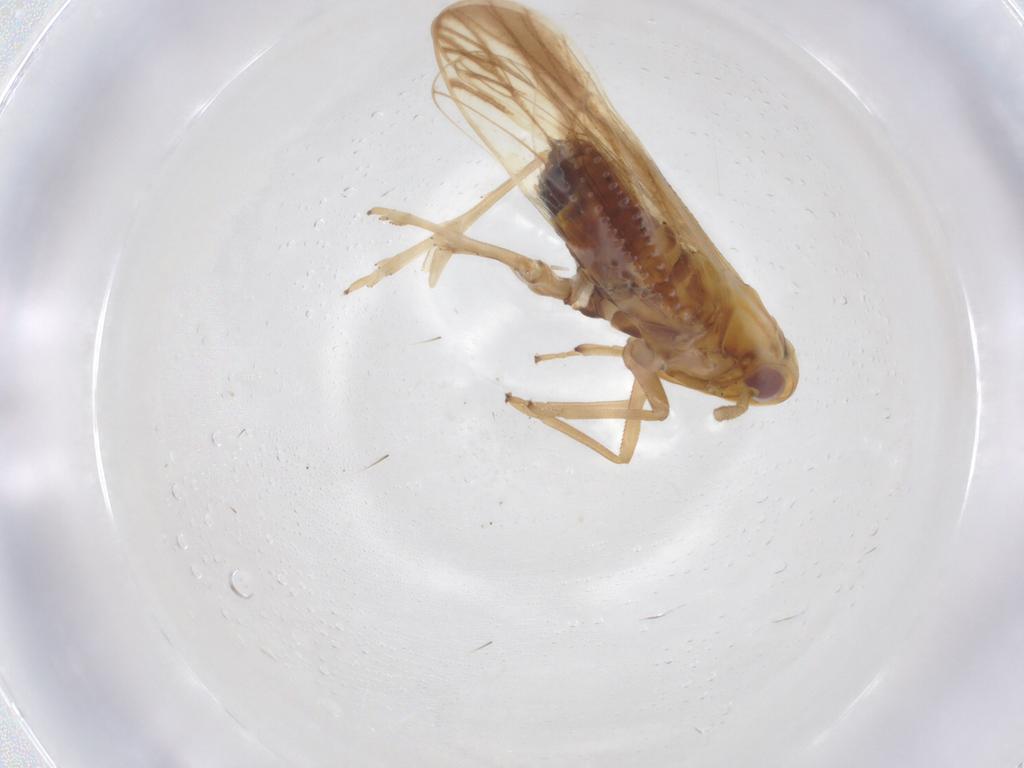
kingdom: Animalia
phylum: Arthropoda
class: Insecta
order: Hemiptera
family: Delphacidae
